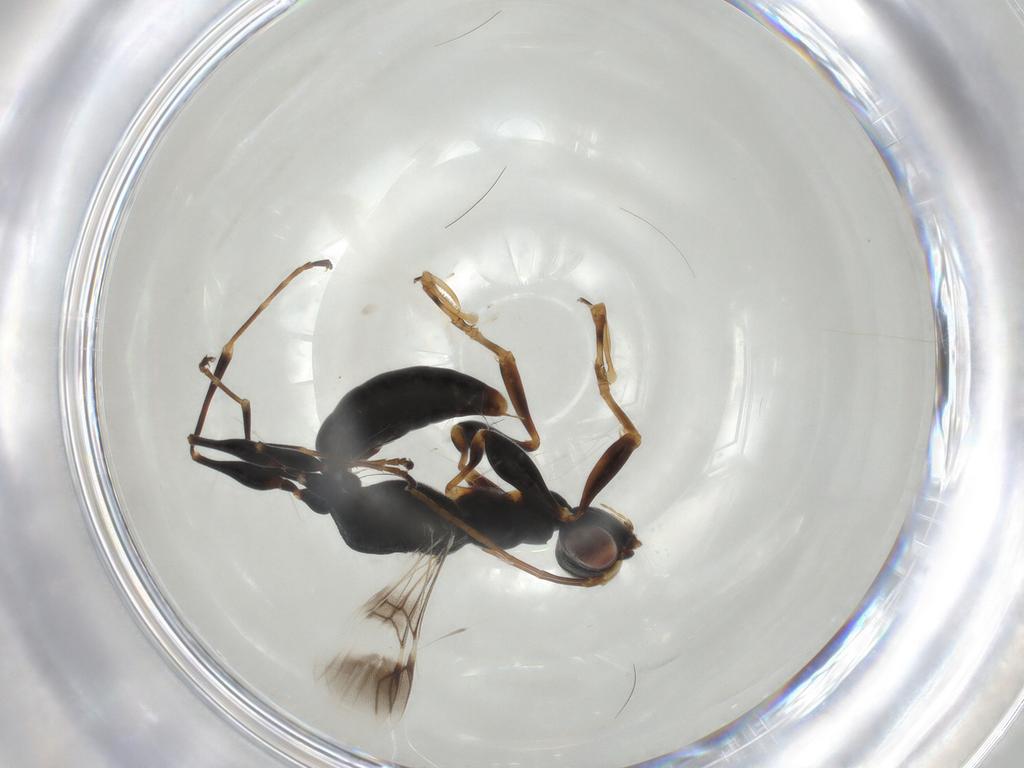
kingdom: Animalia
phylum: Arthropoda
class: Insecta
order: Hymenoptera
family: Dryinidae
